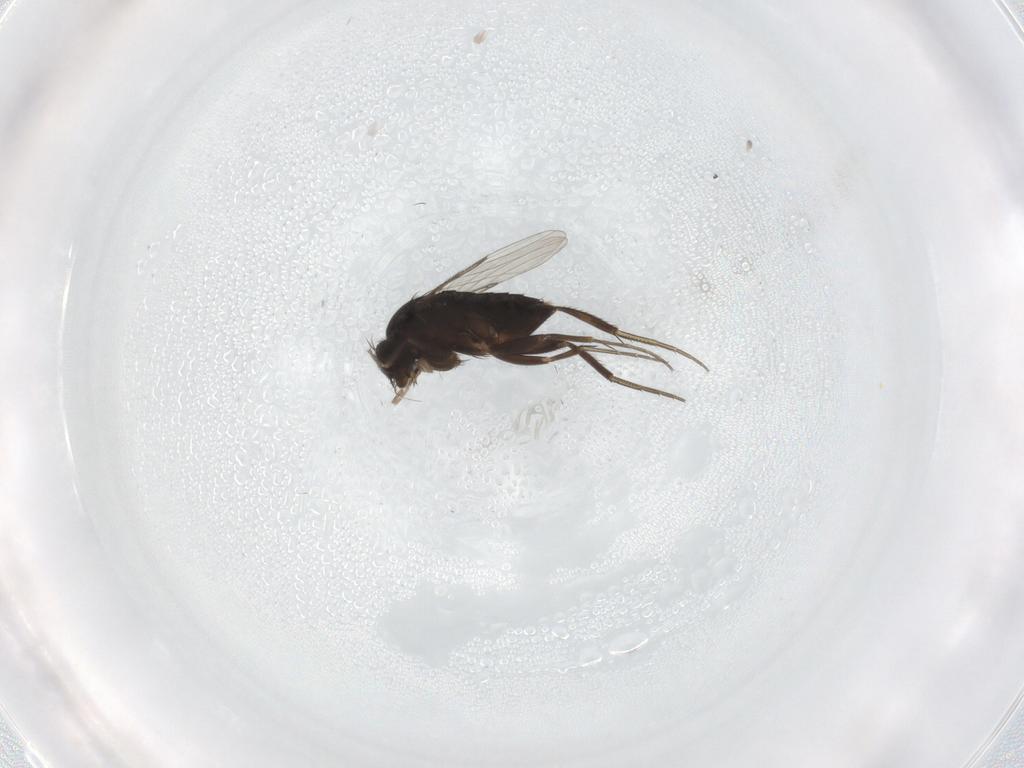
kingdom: Animalia
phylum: Arthropoda
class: Insecta
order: Diptera
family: Phoridae
